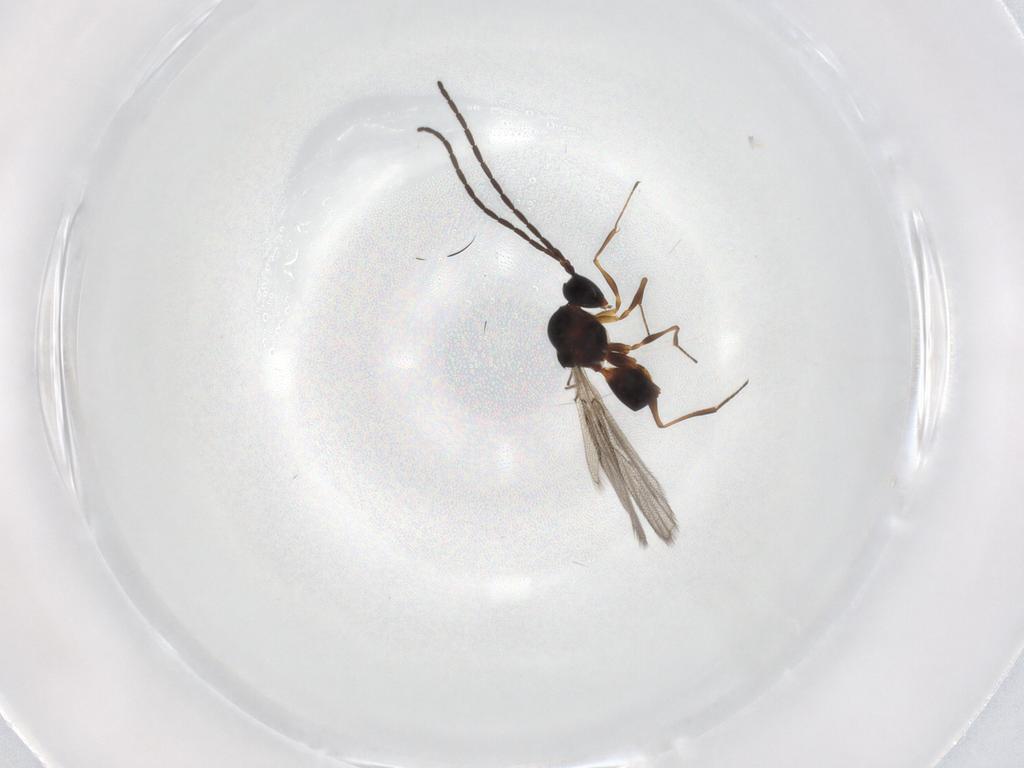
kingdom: Animalia
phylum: Arthropoda
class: Insecta
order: Hymenoptera
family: Figitidae
